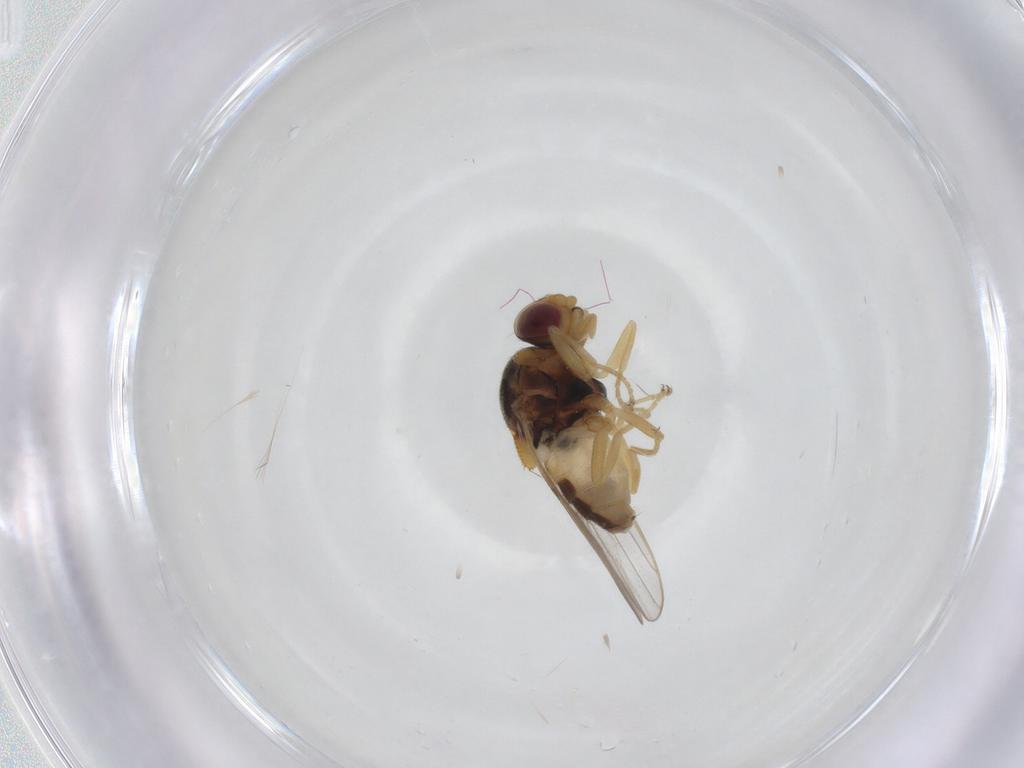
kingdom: Animalia
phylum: Arthropoda
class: Insecta
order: Diptera
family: Chloropidae
